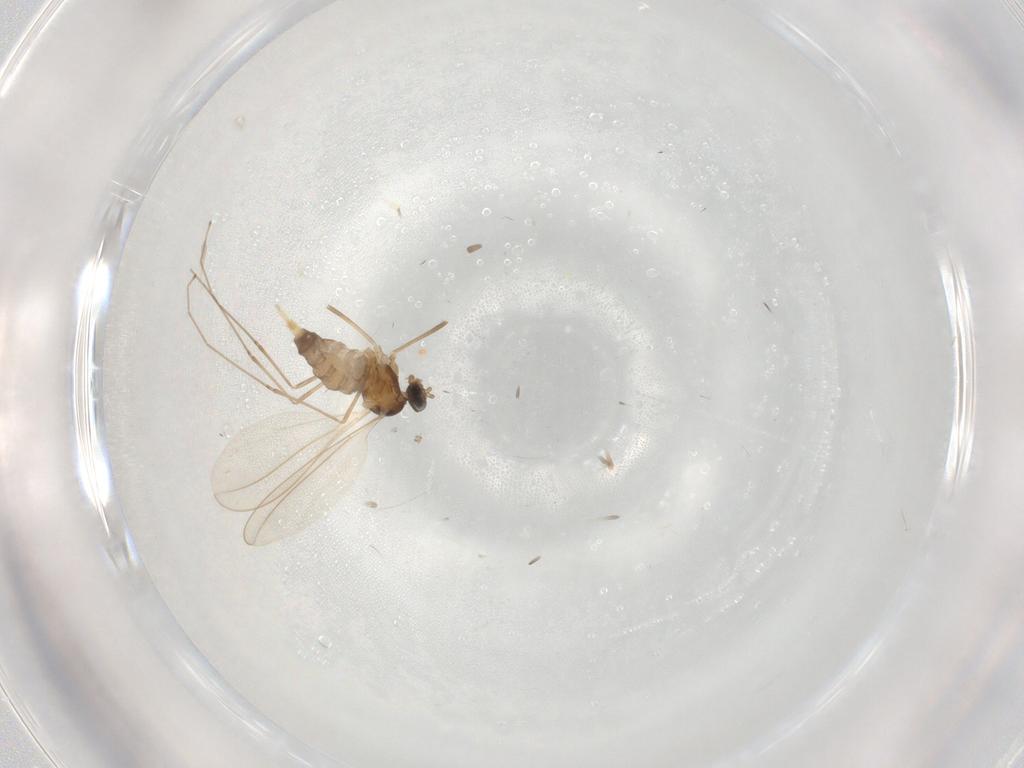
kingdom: Animalia
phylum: Arthropoda
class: Insecta
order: Diptera
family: Cecidomyiidae
